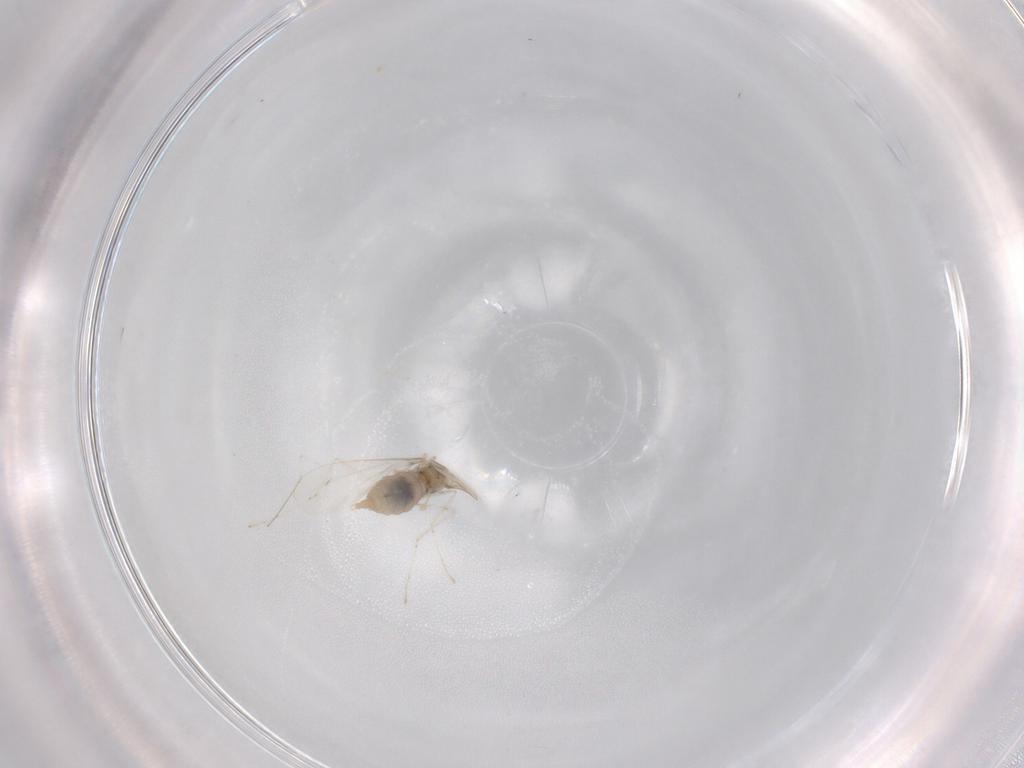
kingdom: Animalia
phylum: Arthropoda
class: Insecta
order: Diptera
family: Cecidomyiidae
